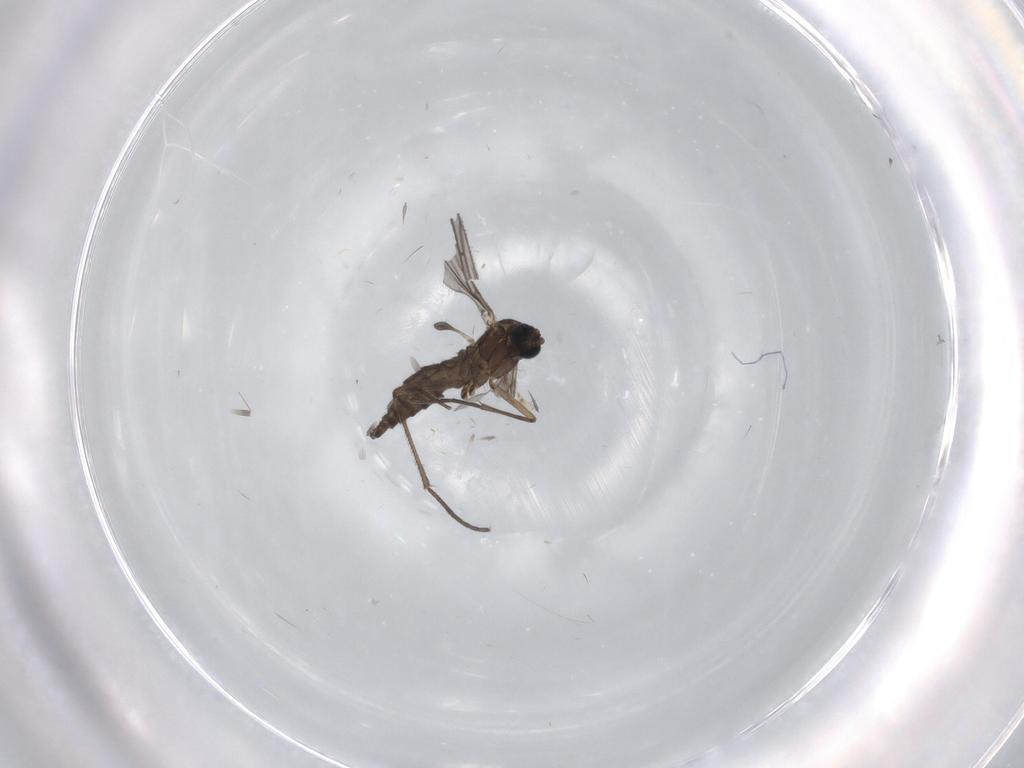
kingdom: Animalia
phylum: Arthropoda
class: Insecta
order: Diptera
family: Sciaridae
